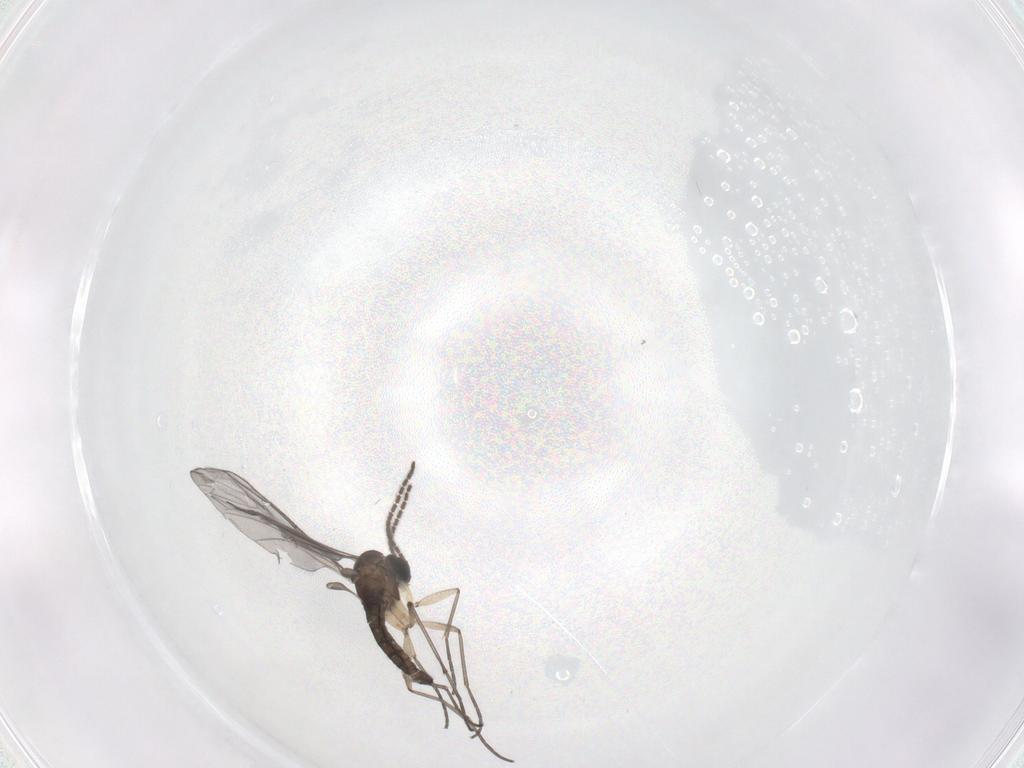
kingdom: Animalia
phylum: Arthropoda
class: Insecta
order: Diptera
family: Sciaridae
